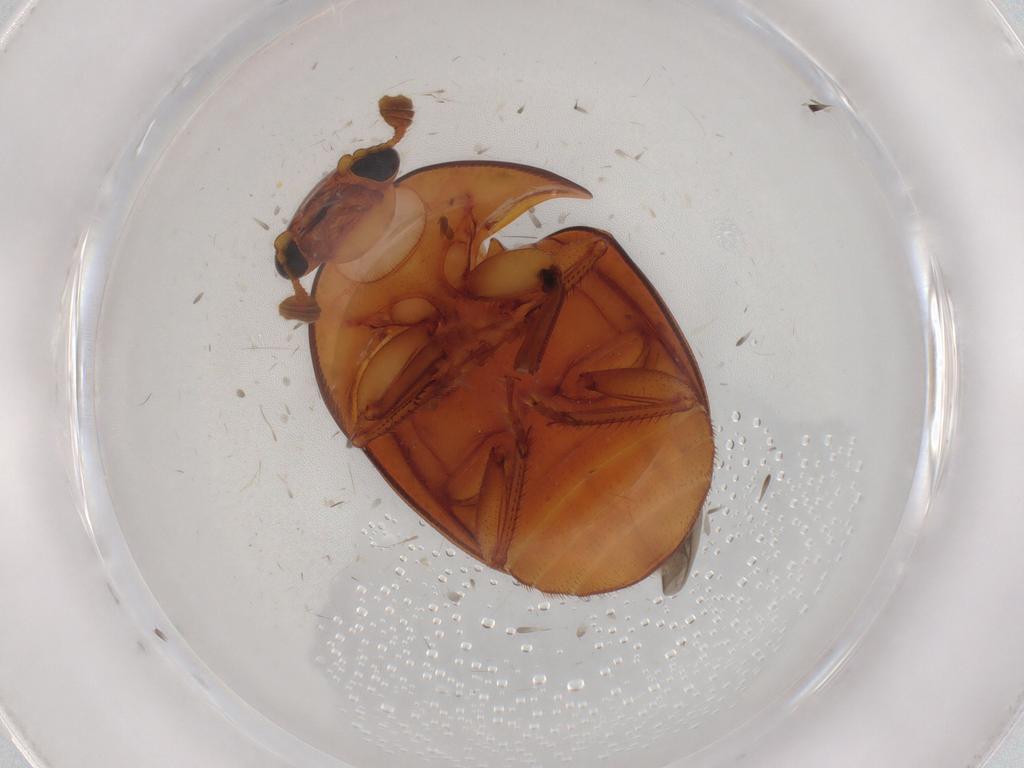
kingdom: Animalia
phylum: Arthropoda
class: Insecta
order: Coleoptera
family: Nitidulidae
